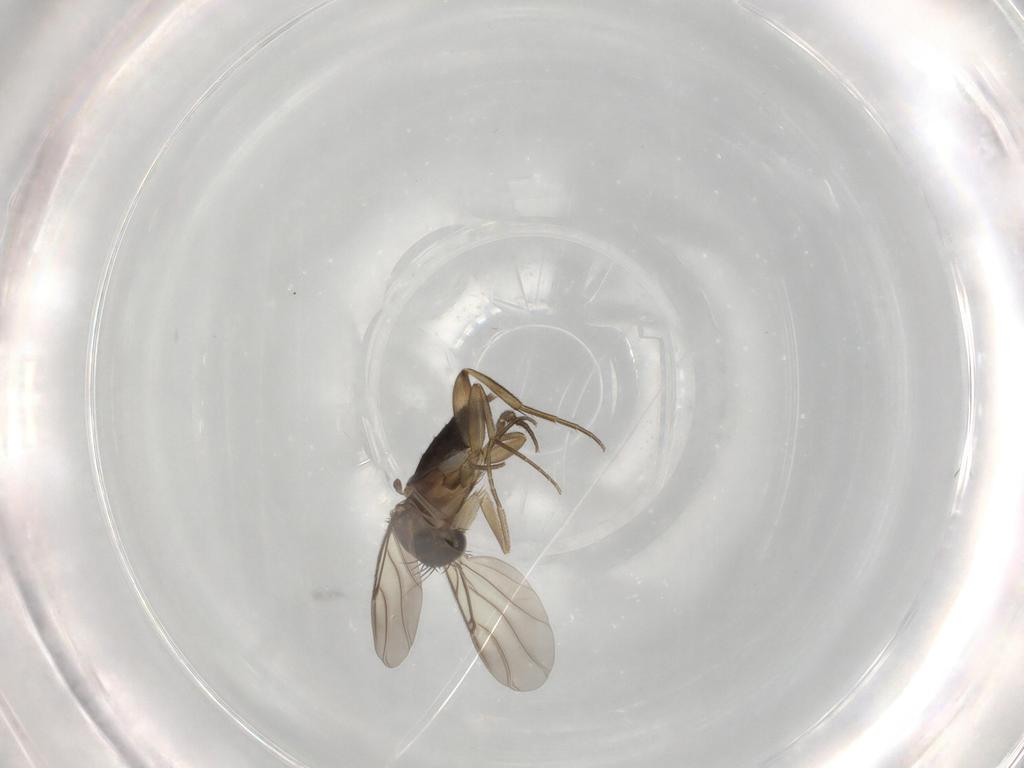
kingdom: Animalia
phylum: Arthropoda
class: Insecta
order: Diptera
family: Phoridae
